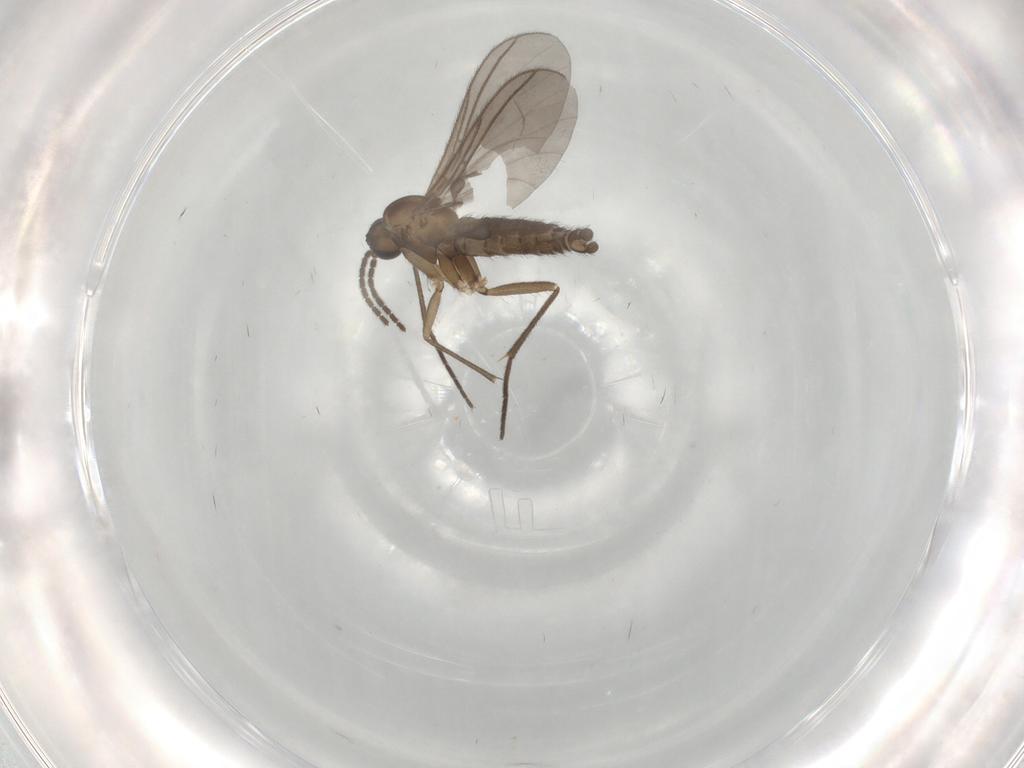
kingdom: Animalia
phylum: Arthropoda
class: Insecta
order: Diptera
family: Sciaridae
